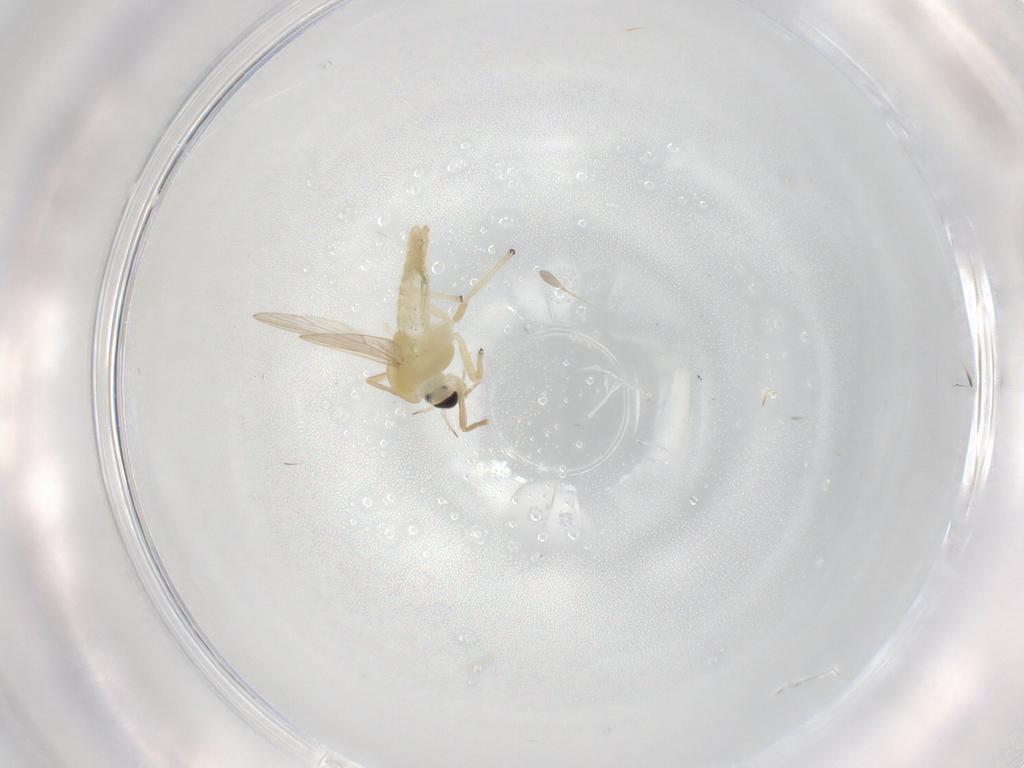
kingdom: Animalia
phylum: Arthropoda
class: Insecta
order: Diptera
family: Chironomidae
